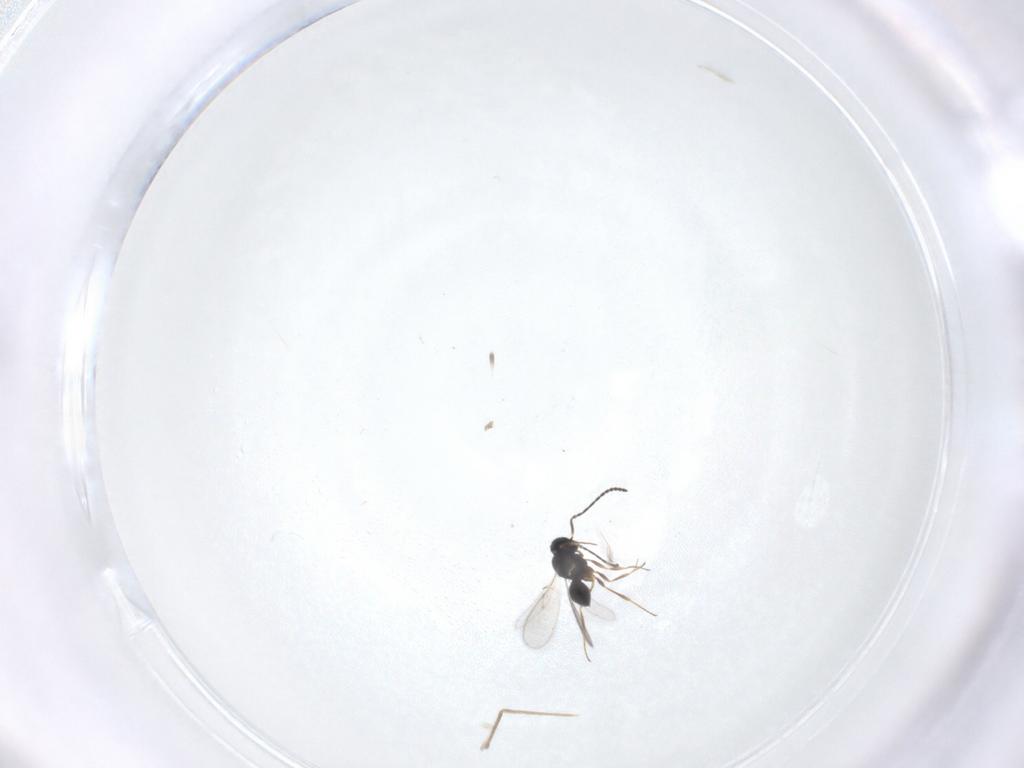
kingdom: Animalia
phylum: Arthropoda
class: Insecta
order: Hymenoptera
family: Scelionidae
